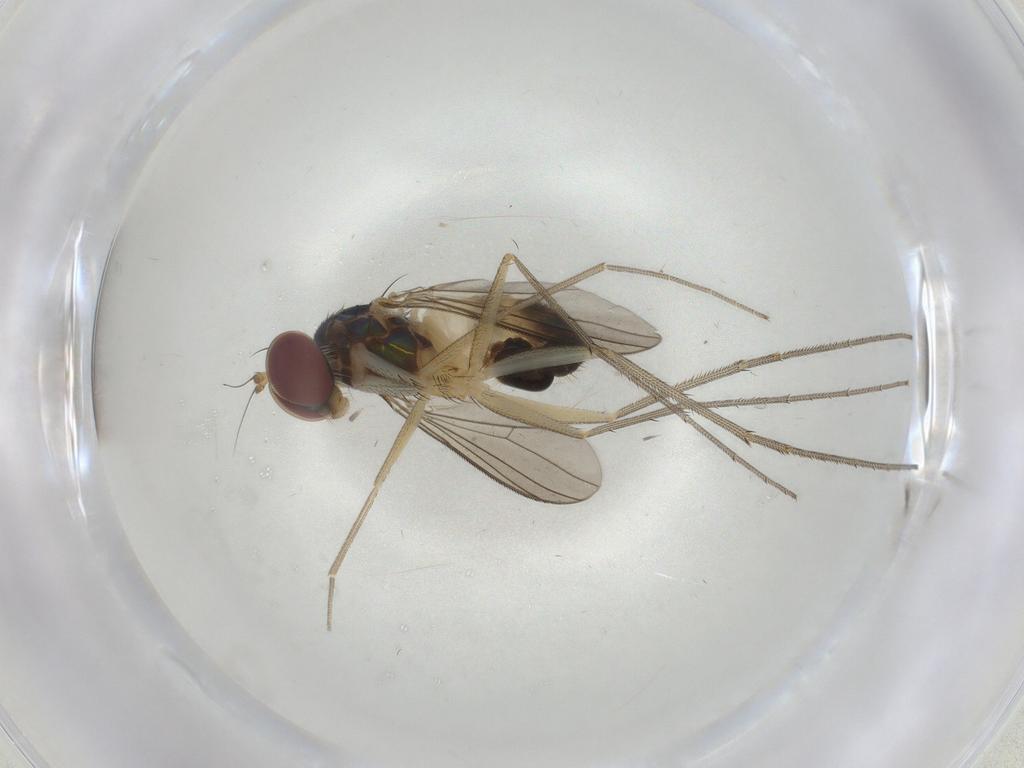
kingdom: Animalia
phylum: Arthropoda
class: Insecta
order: Diptera
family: Dolichopodidae
